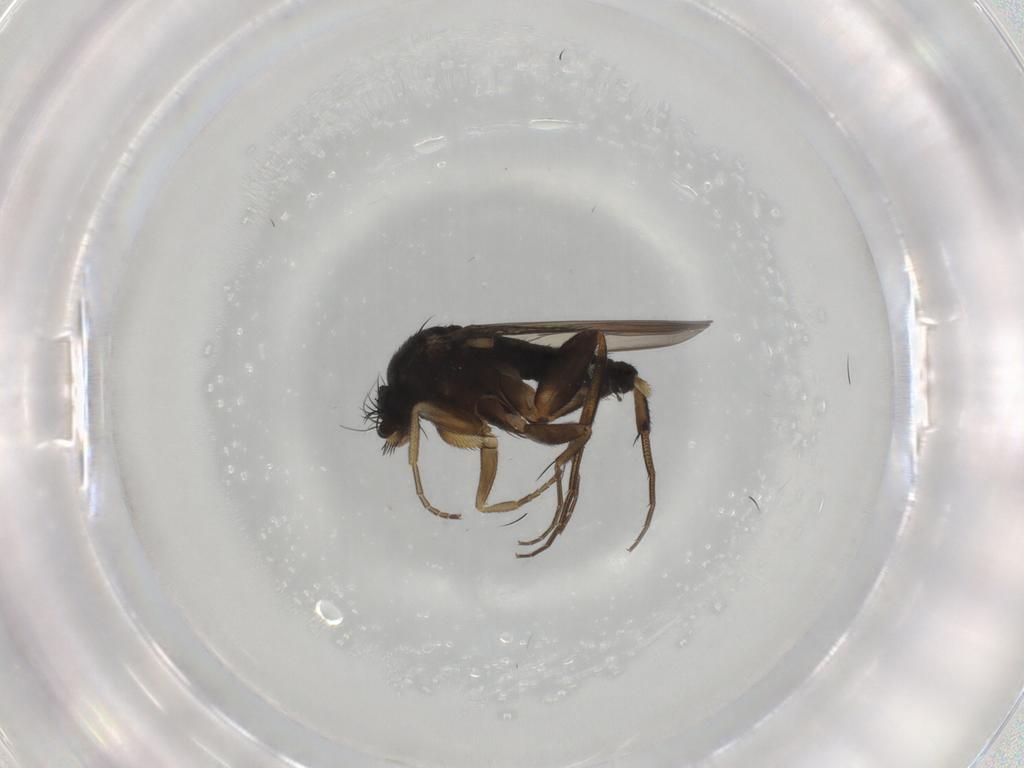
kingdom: Animalia
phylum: Arthropoda
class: Insecta
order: Diptera
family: Phoridae
